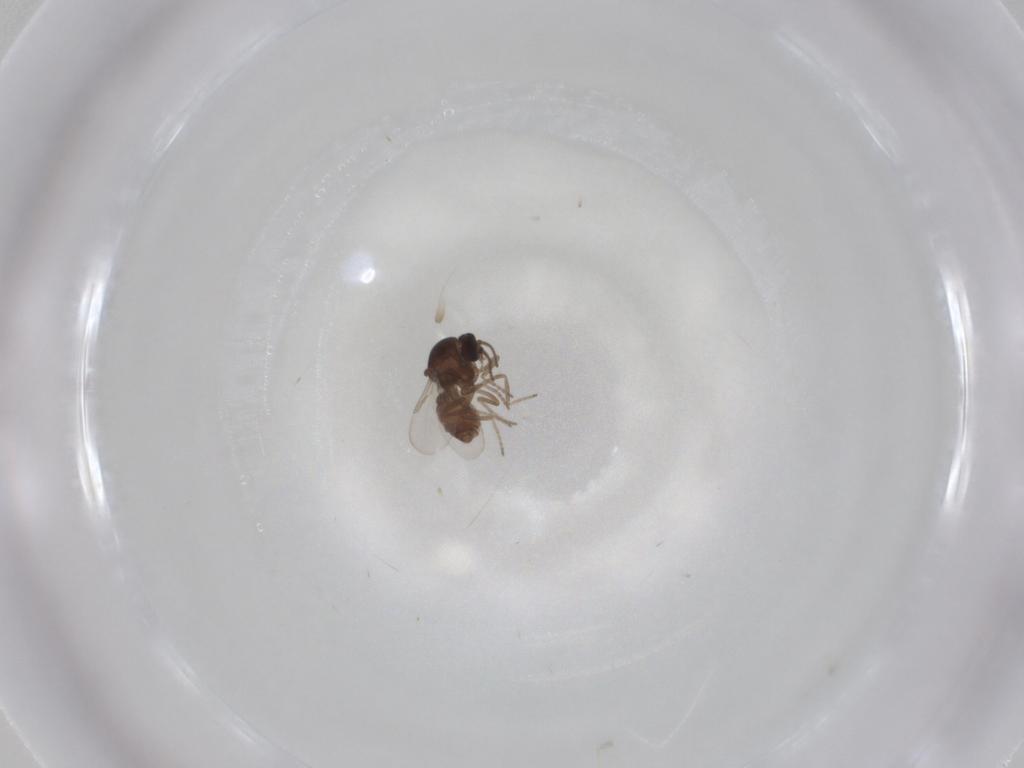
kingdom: Animalia
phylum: Arthropoda
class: Insecta
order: Diptera
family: Ceratopogonidae
